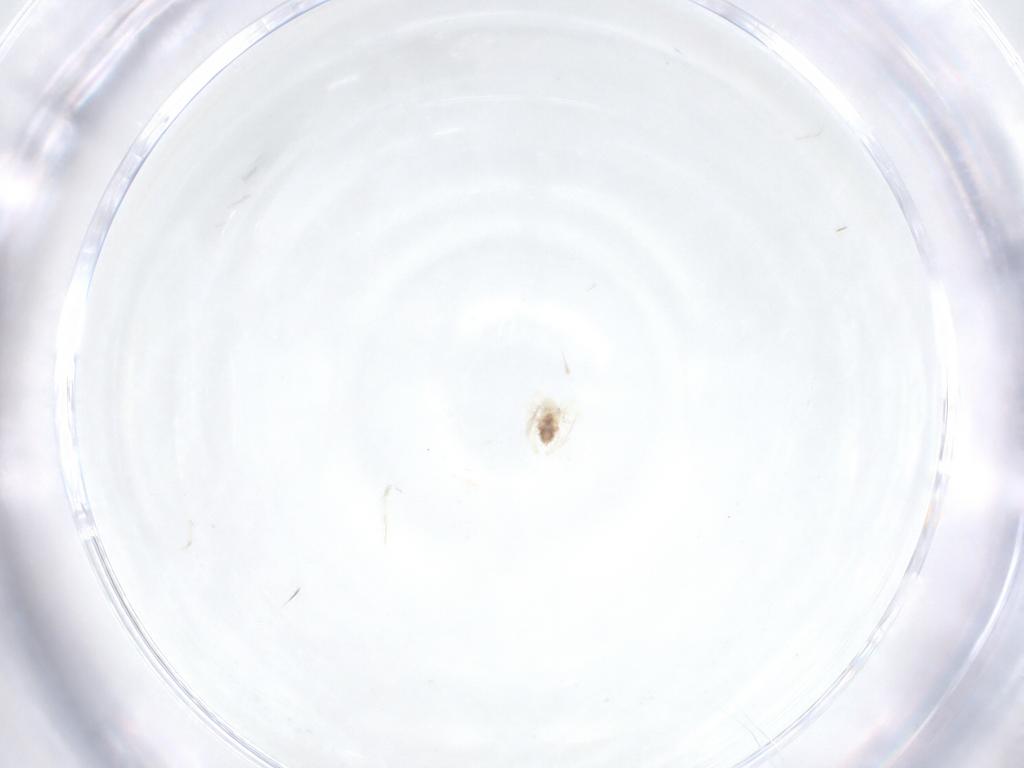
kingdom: Animalia
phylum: Arthropoda
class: Arachnida
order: Trombidiformes
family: Anystidae
